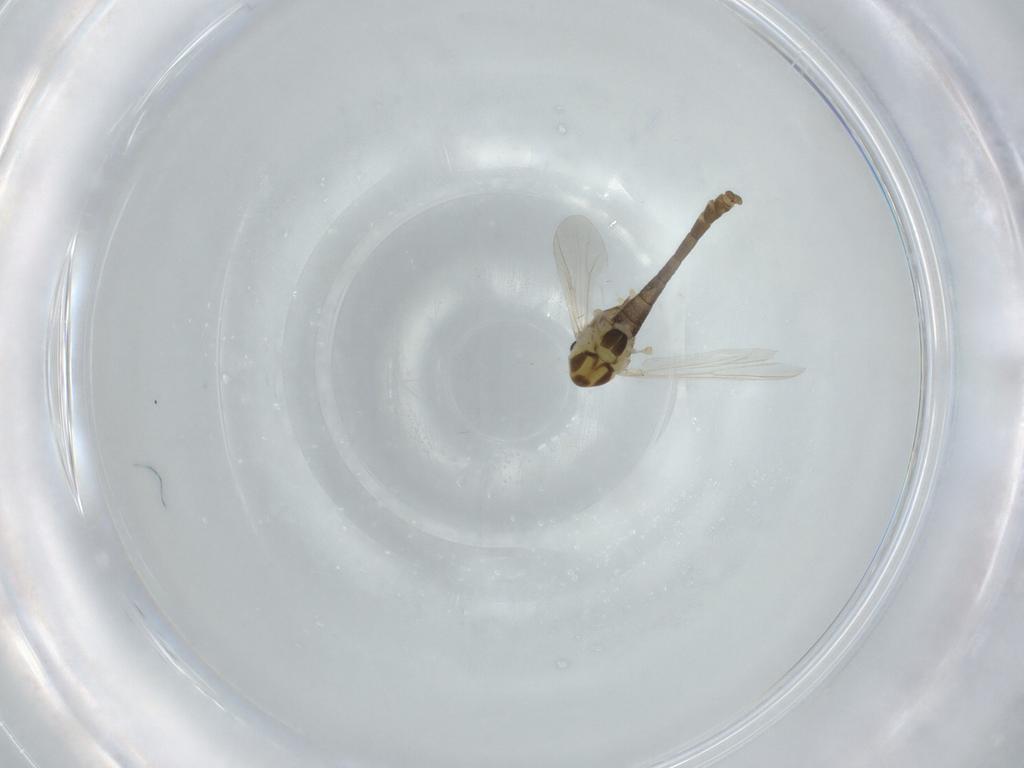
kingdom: Animalia
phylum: Arthropoda
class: Insecta
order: Diptera
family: Chironomidae
